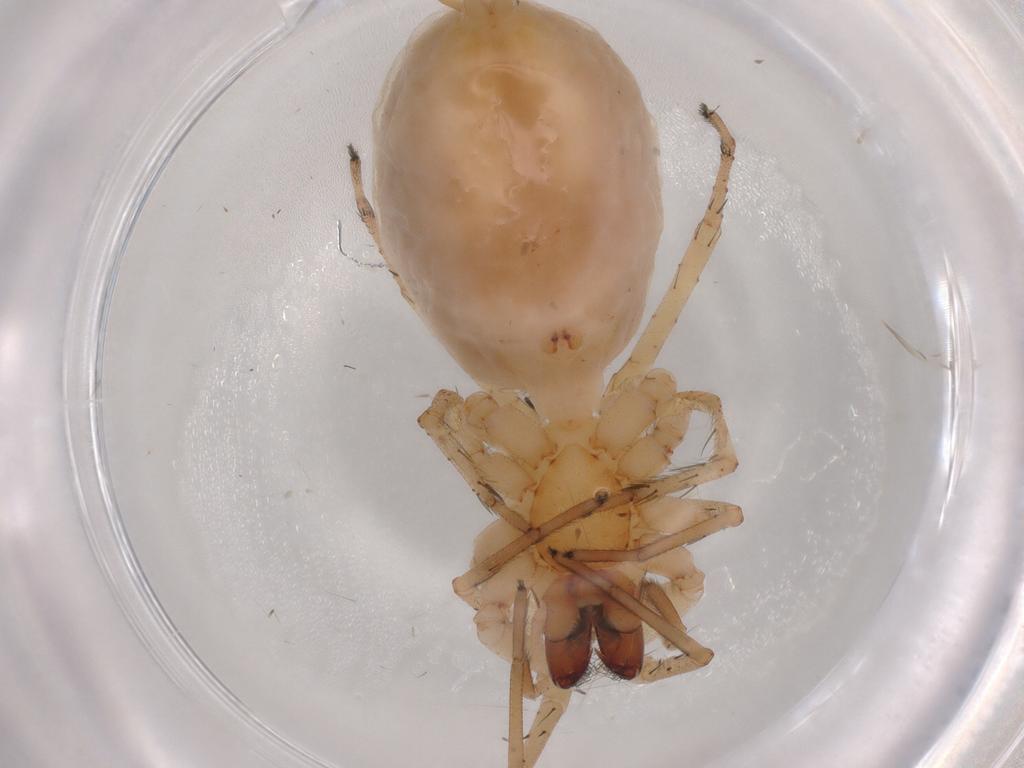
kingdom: Animalia
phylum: Arthropoda
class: Arachnida
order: Araneae
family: Anyphaenidae
